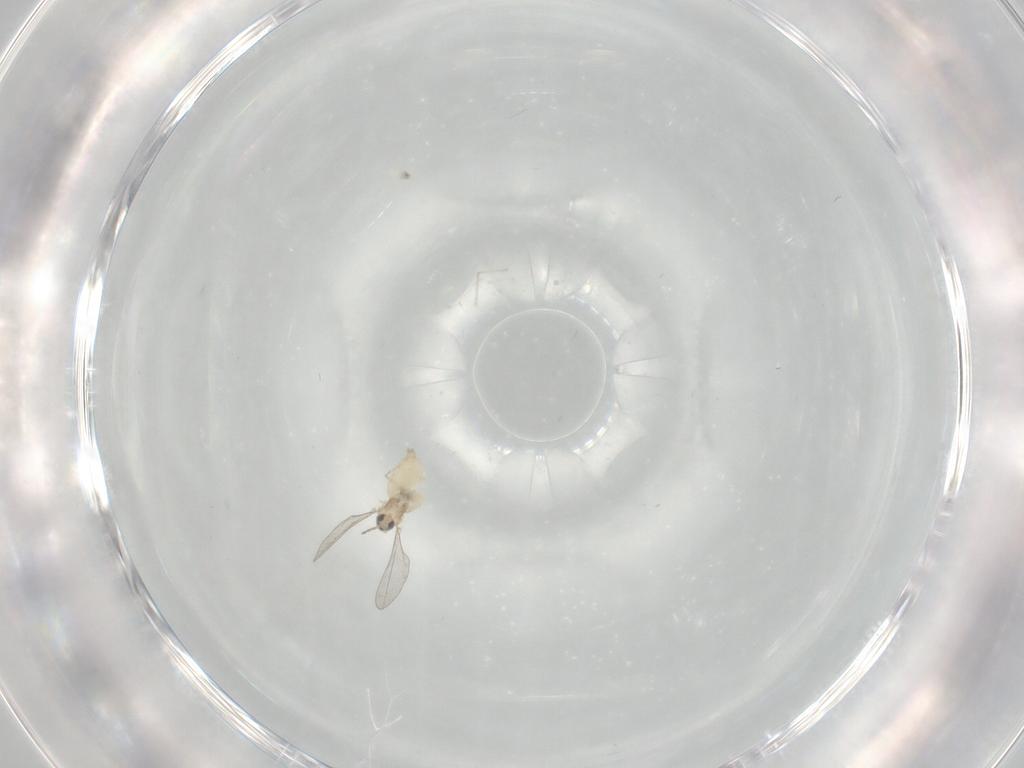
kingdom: Animalia
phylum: Arthropoda
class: Insecta
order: Diptera
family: Cecidomyiidae
